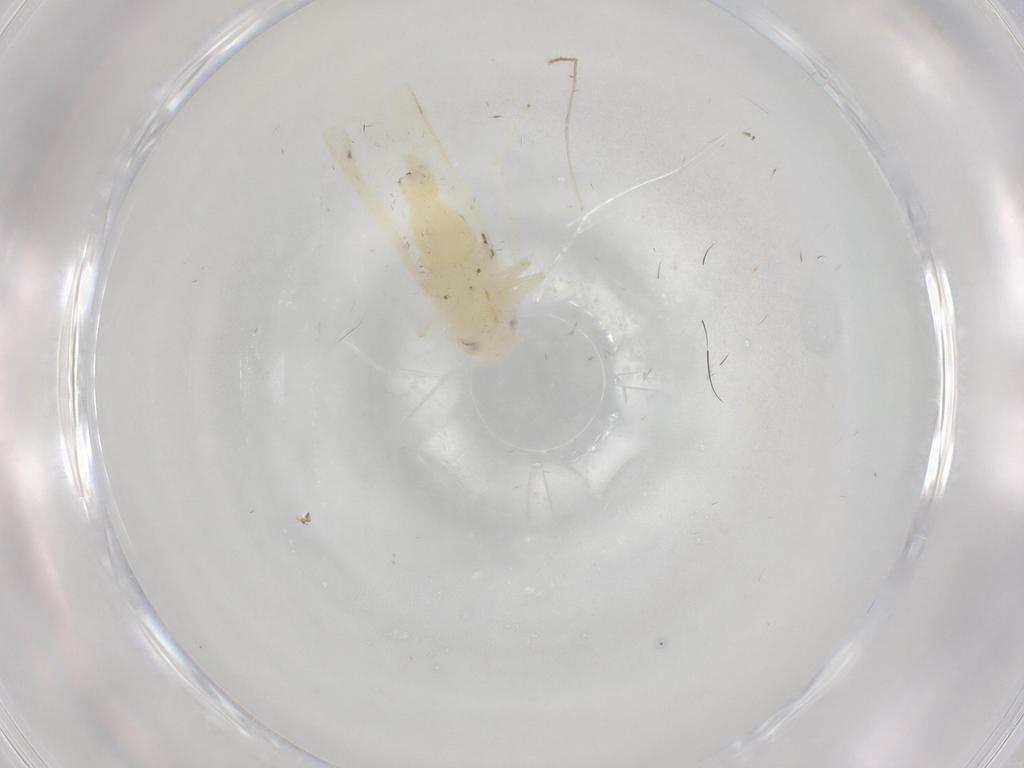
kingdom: Animalia
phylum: Arthropoda
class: Insecta
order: Hemiptera
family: Cicadellidae
